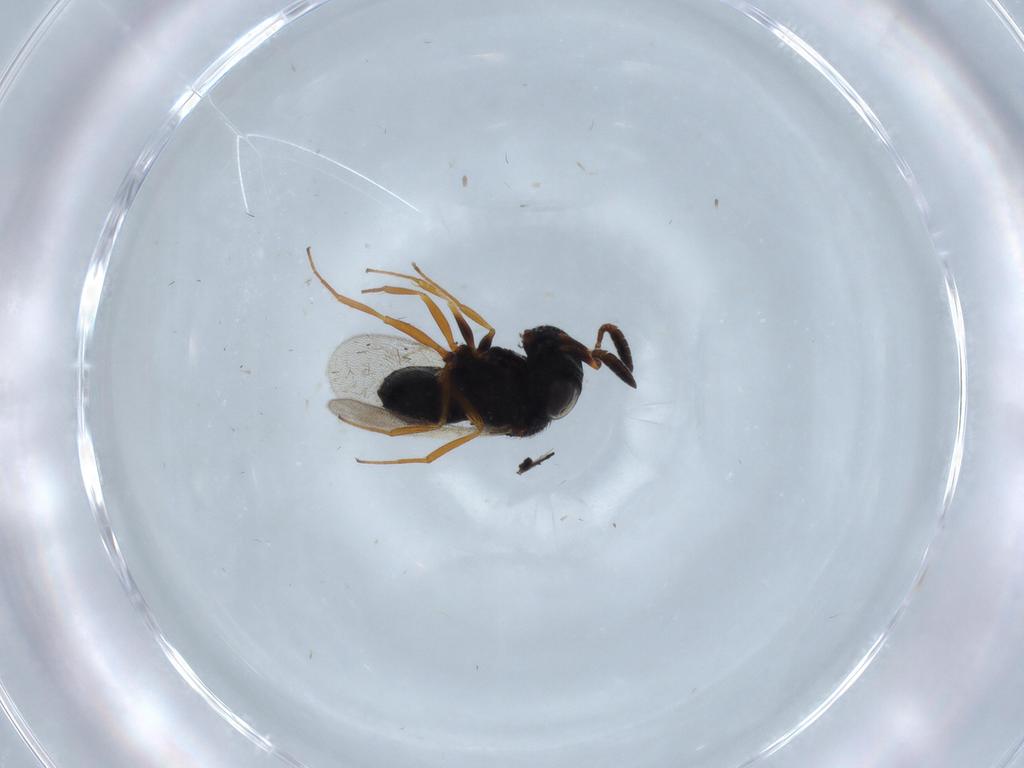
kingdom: Animalia
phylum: Arthropoda
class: Insecta
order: Hymenoptera
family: Scelionidae
